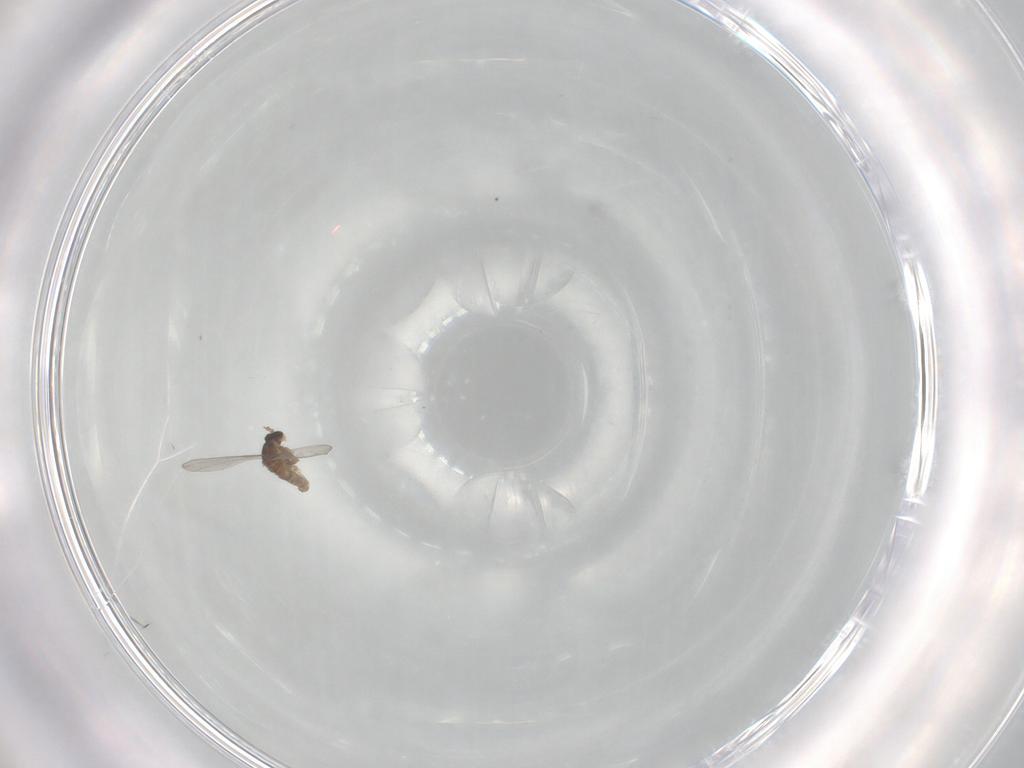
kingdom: Animalia
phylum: Arthropoda
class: Insecta
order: Diptera
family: Cecidomyiidae
